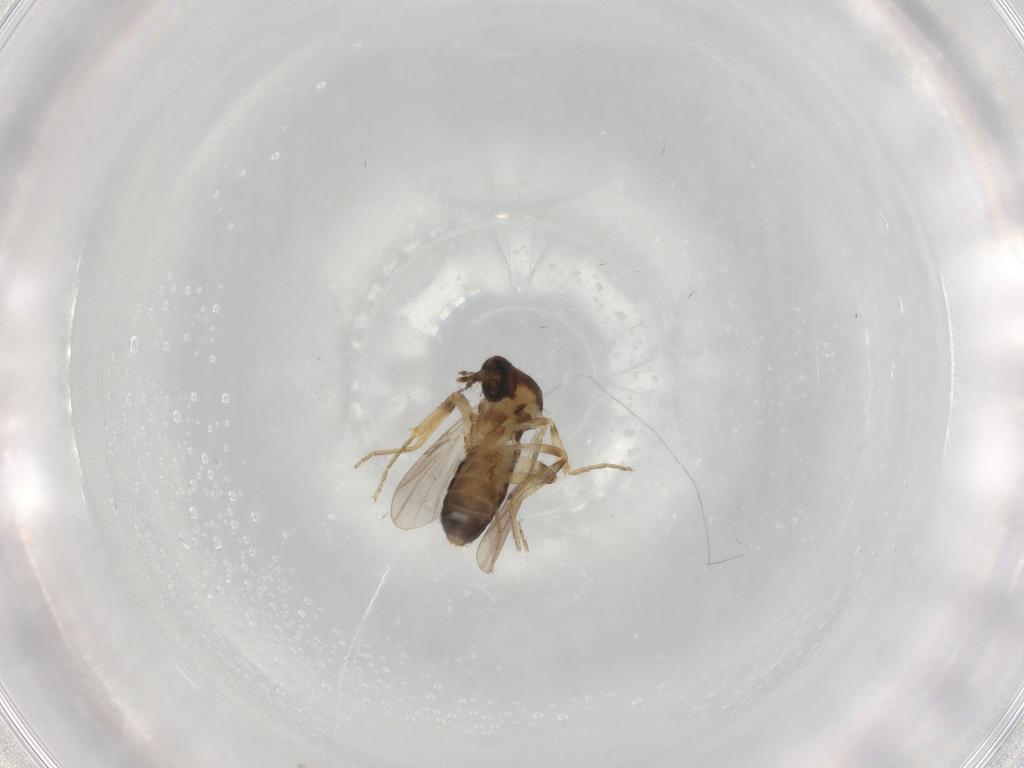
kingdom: Animalia
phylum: Arthropoda
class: Insecta
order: Diptera
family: Ceratopogonidae
